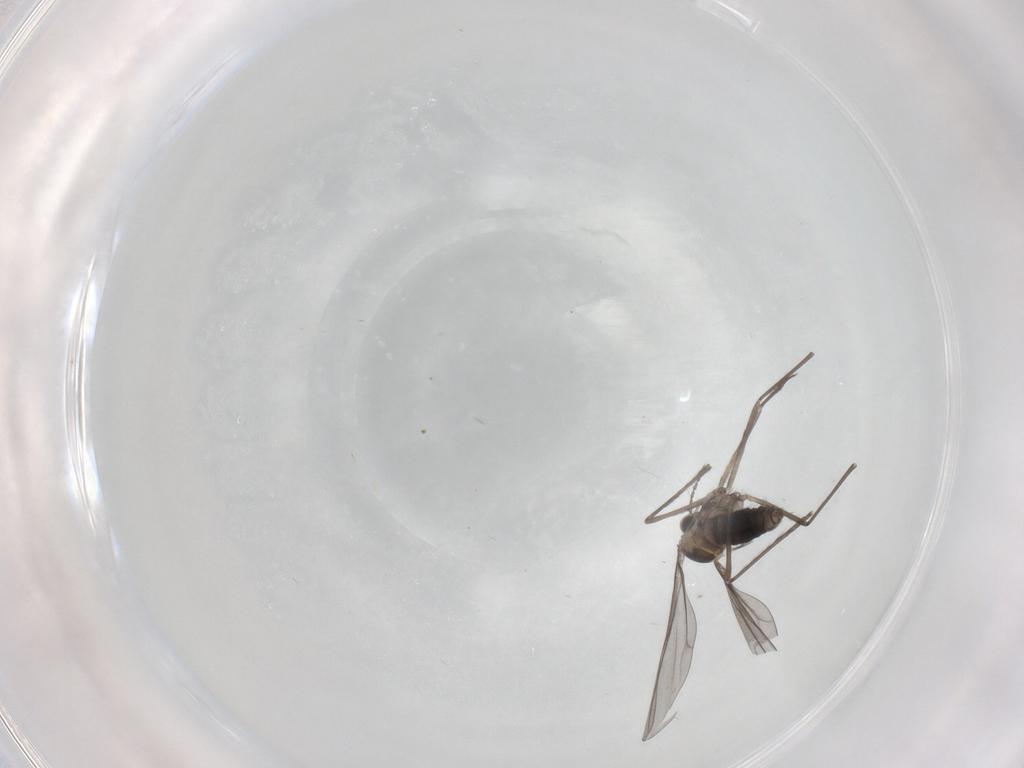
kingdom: Animalia
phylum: Arthropoda
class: Insecta
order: Diptera
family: Cecidomyiidae
